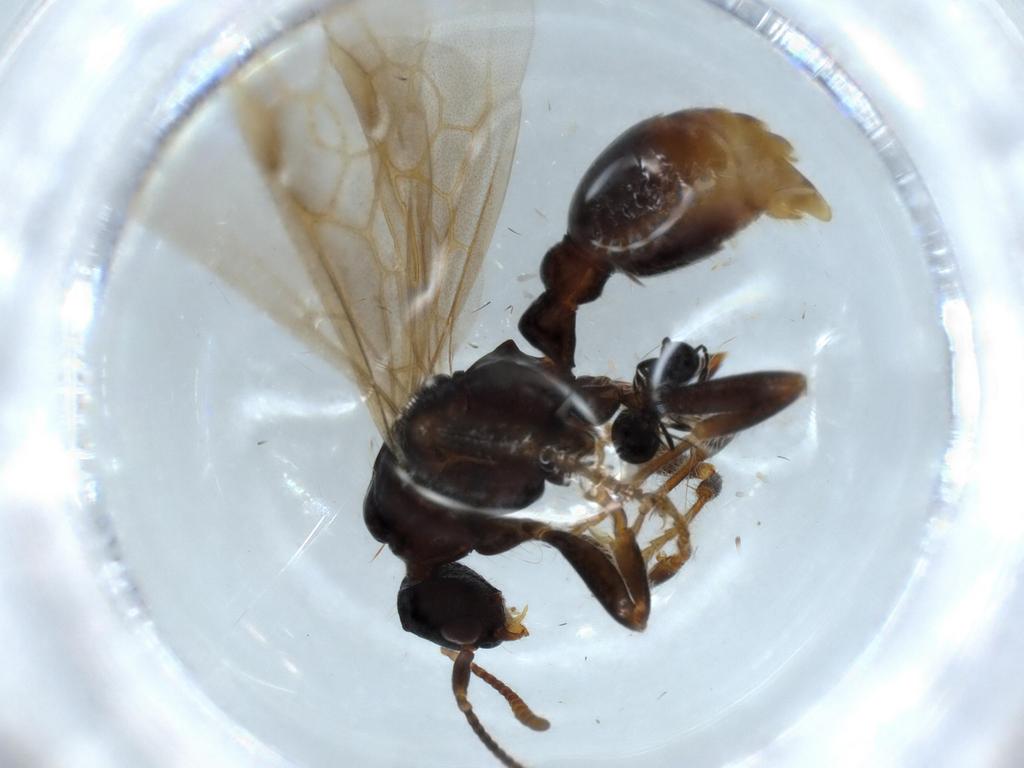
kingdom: Animalia
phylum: Arthropoda
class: Insecta
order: Hymenoptera
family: Formicidae
